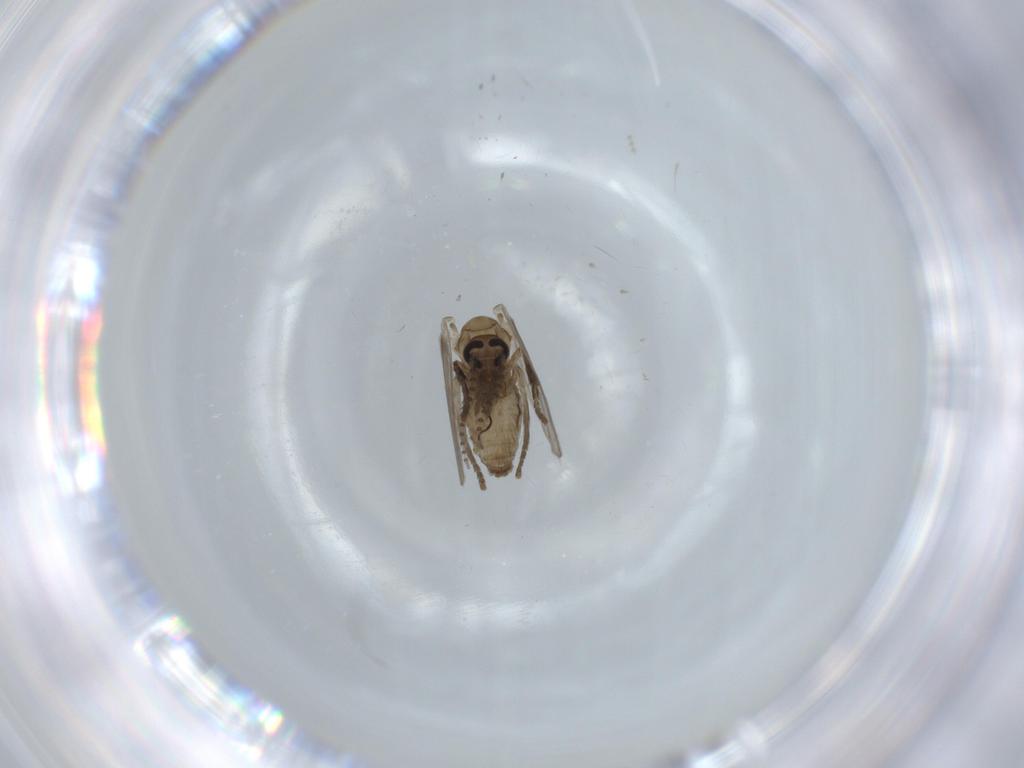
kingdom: Animalia
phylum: Arthropoda
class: Insecta
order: Diptera
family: Psychodidae
